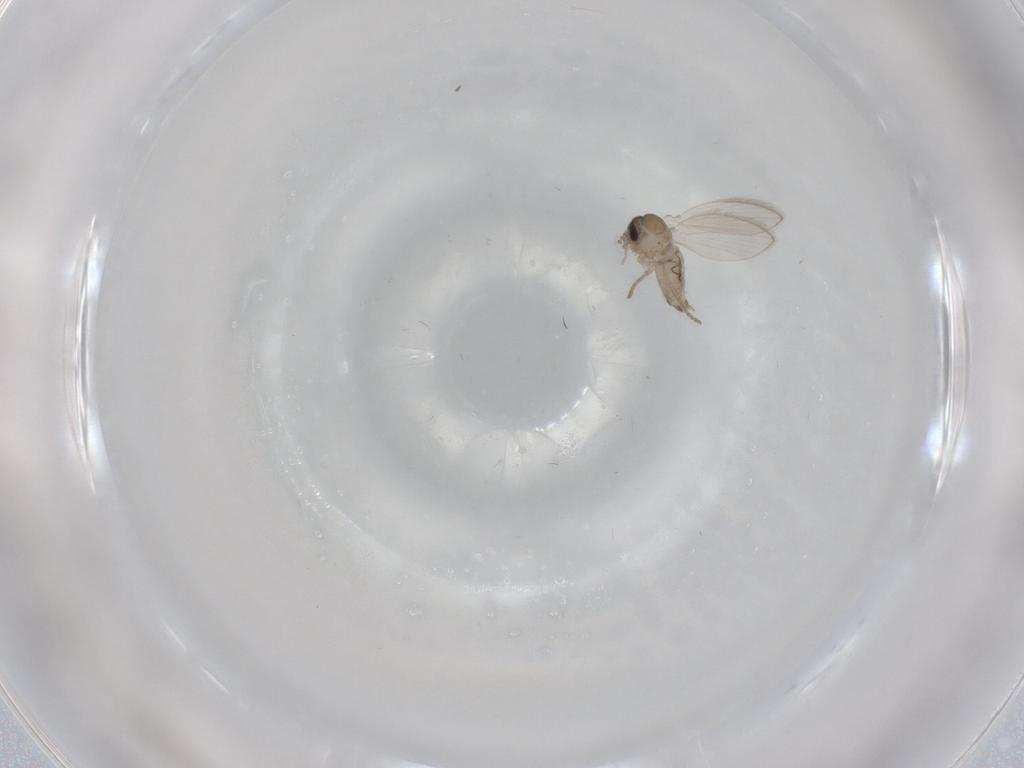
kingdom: Animalia
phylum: Arthropoda
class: Insecta
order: Diptera
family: Psychodidae
